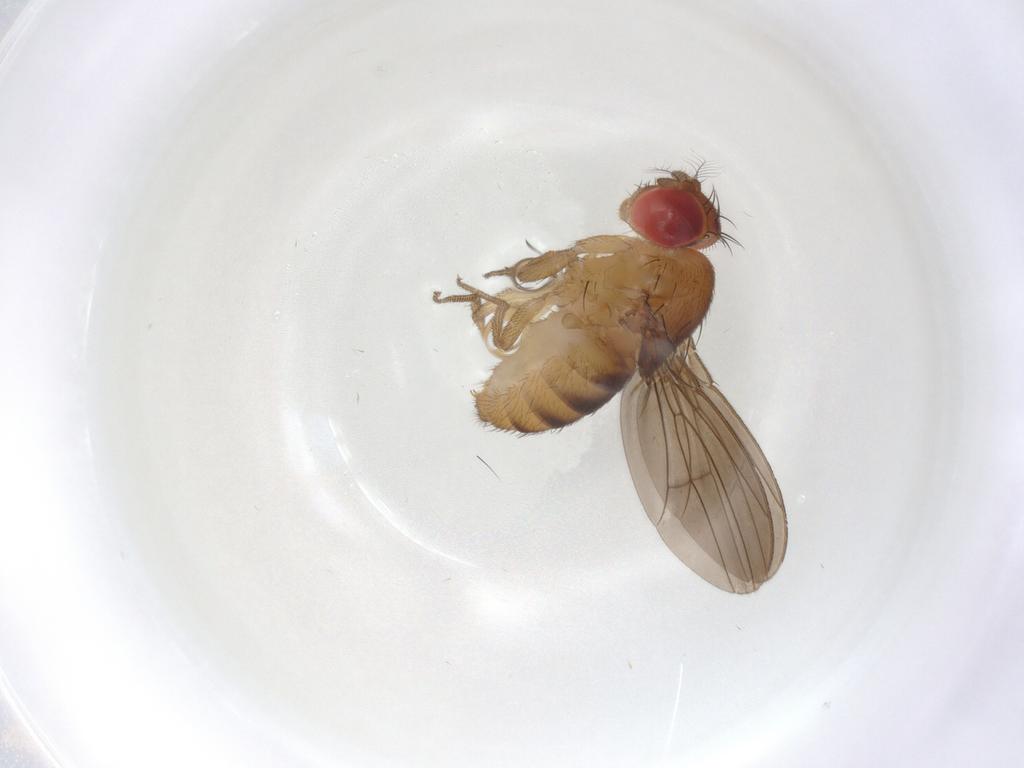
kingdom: Animalia
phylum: Arthropoda
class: Insecta
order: Diptera
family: Drosophilidae
